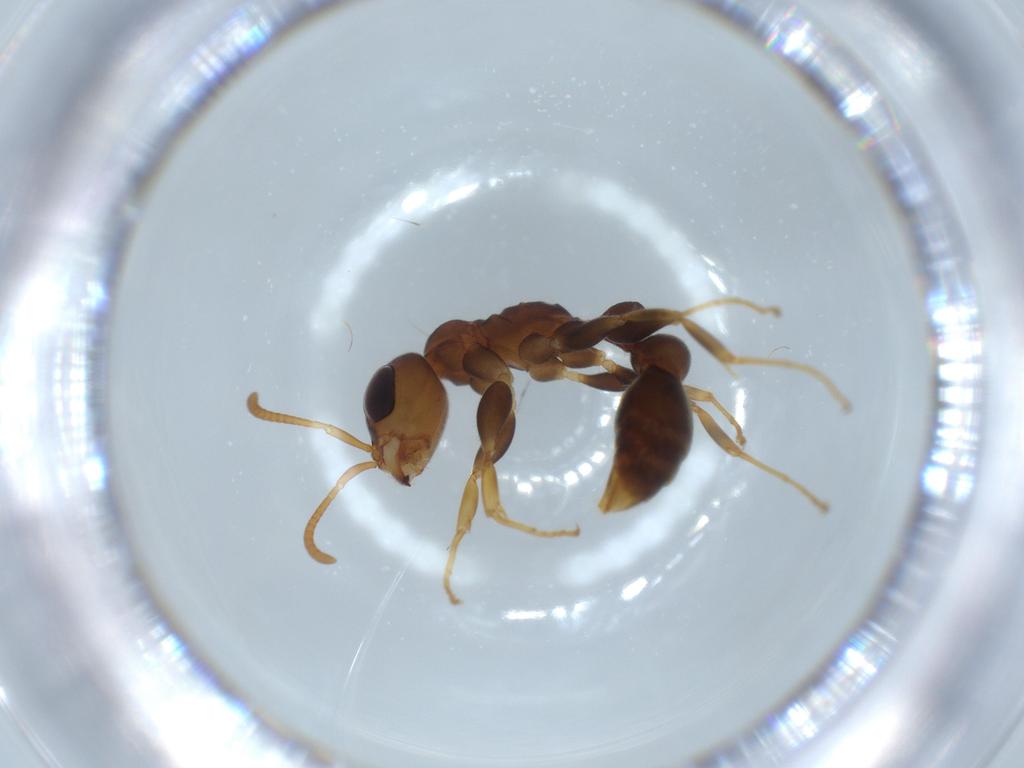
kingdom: Animalia
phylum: Arthropoda
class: Insecta
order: Hymenoptera
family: Formicidae
